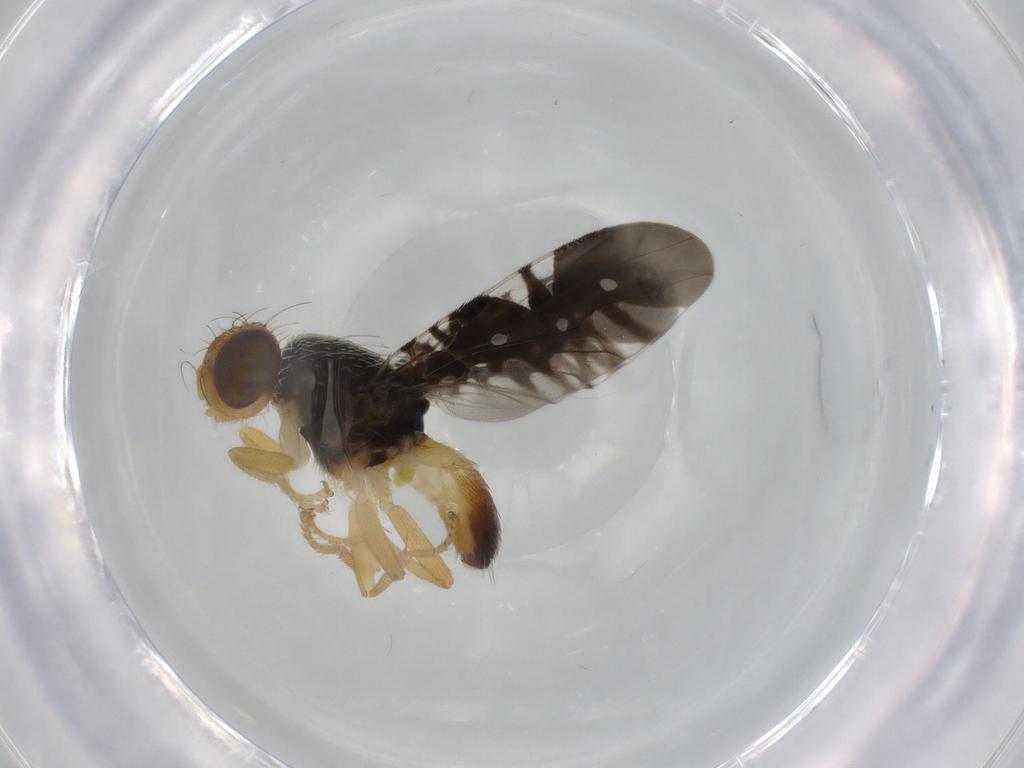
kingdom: Animalia
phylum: Arthropoda
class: Insecta
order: Diptera
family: Tephritidae
